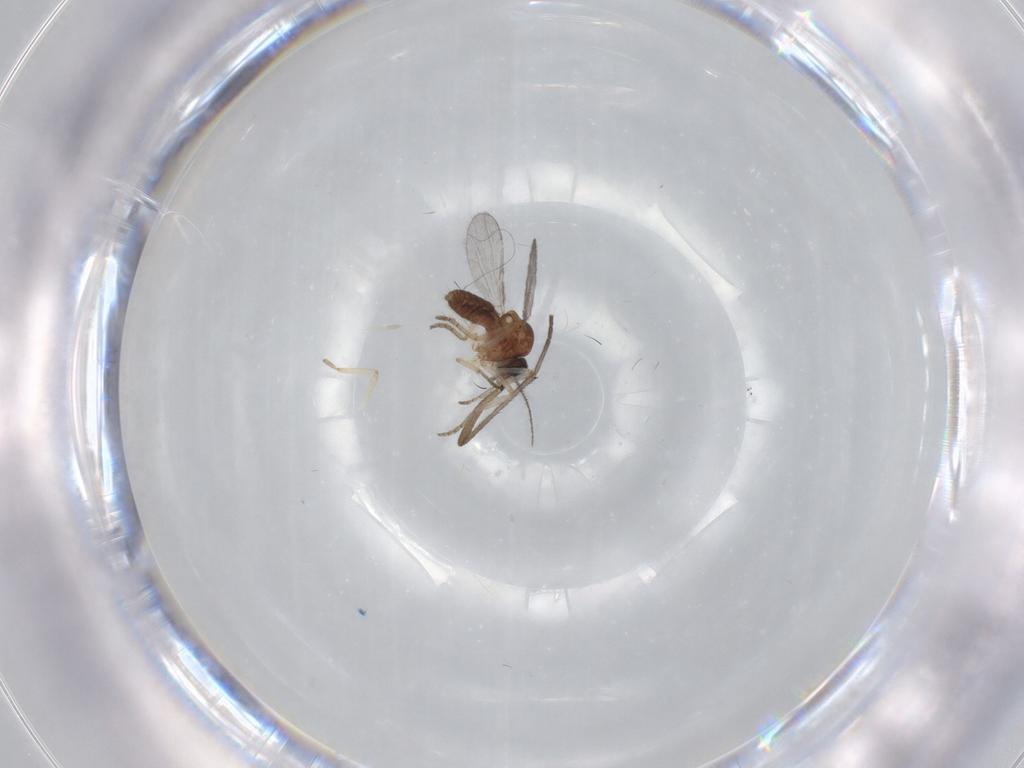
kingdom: Animalia
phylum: Arthropoda
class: Insecta
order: Diptera
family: Ceratopogonidae
